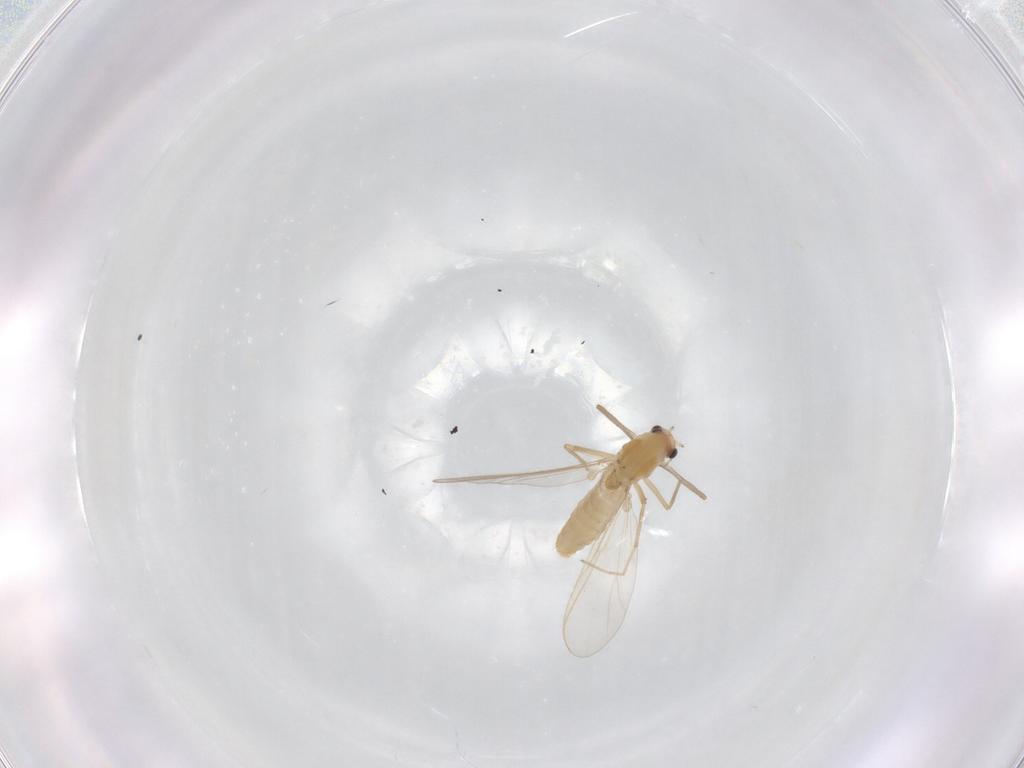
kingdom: Animalia
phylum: Arthropoda
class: Insecta
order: Diptera
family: Chironomidae
